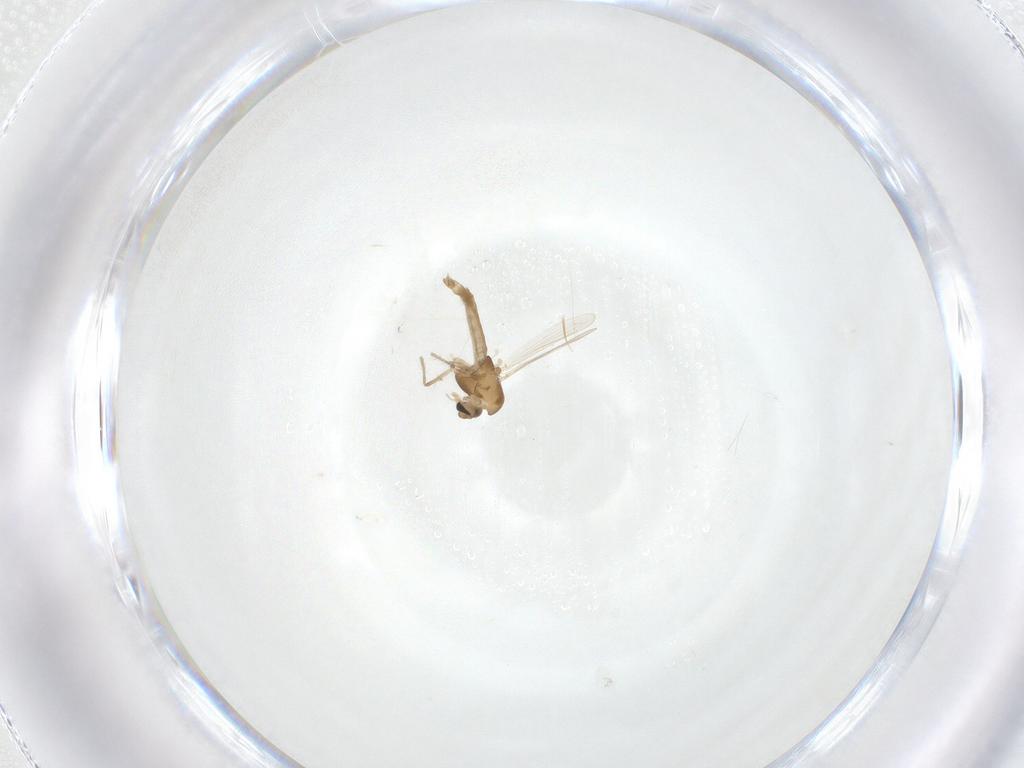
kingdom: Animalia
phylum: Arthropoda
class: Insecta
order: Diptera
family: Chironomidae
